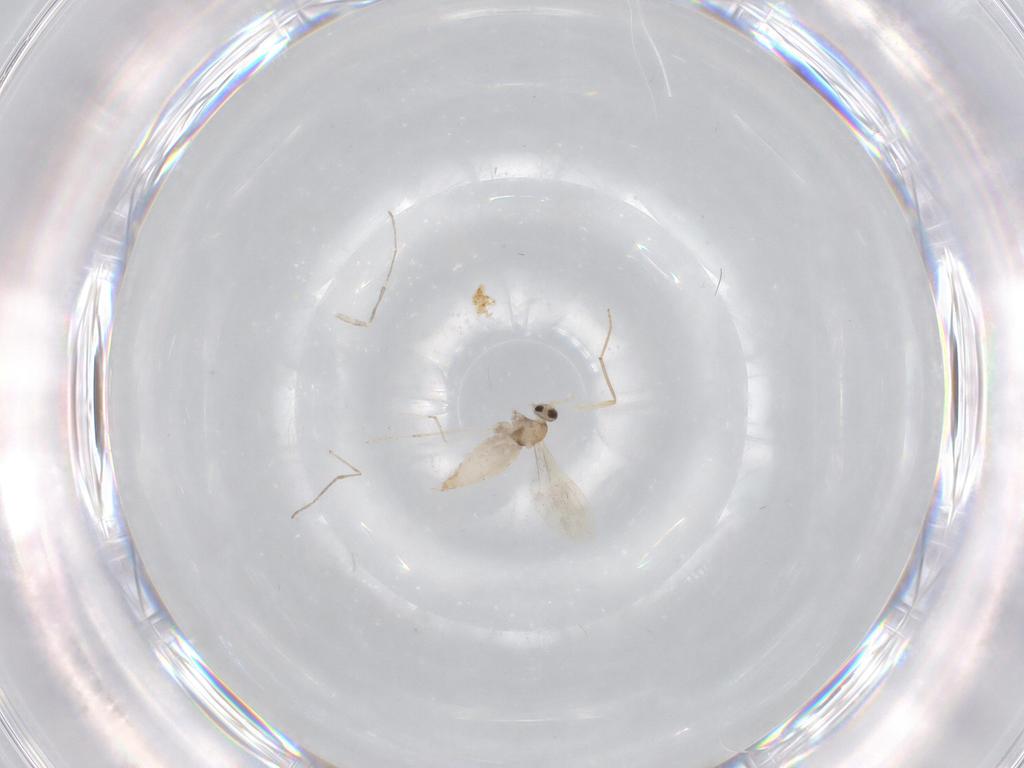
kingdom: Animalia
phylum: Arthropoda
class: Insecta
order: Diptera
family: Chironomidae
